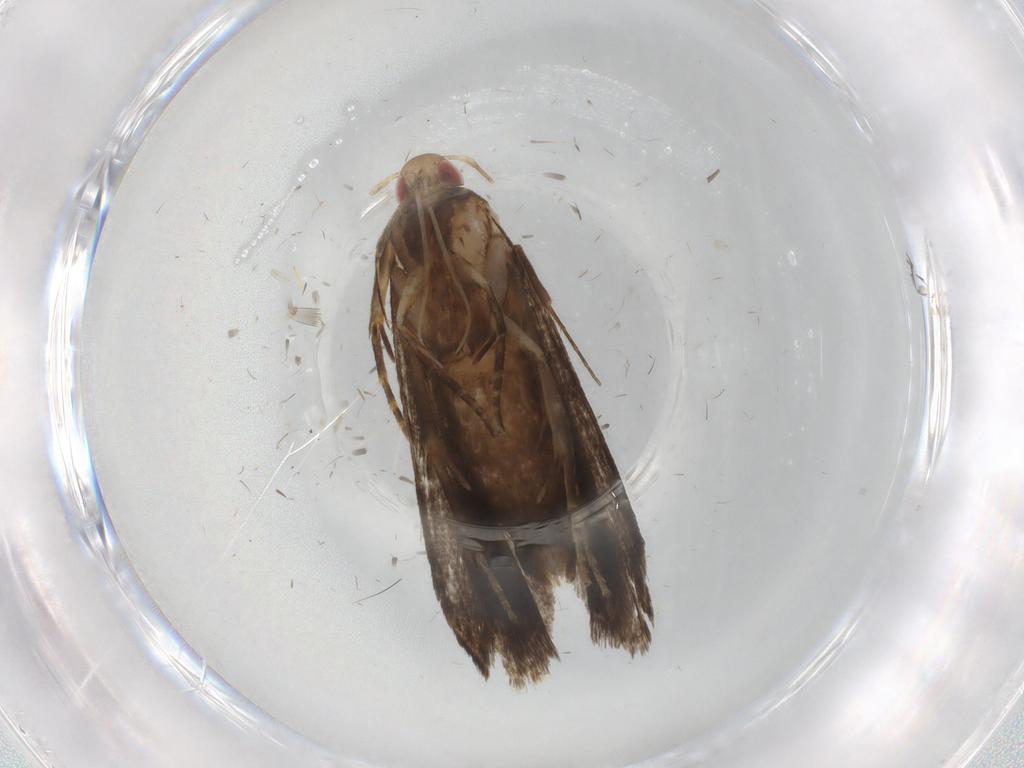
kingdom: Animalia
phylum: Arthropoda
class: Insecta
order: Lepidoptera
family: Gelechiidae
